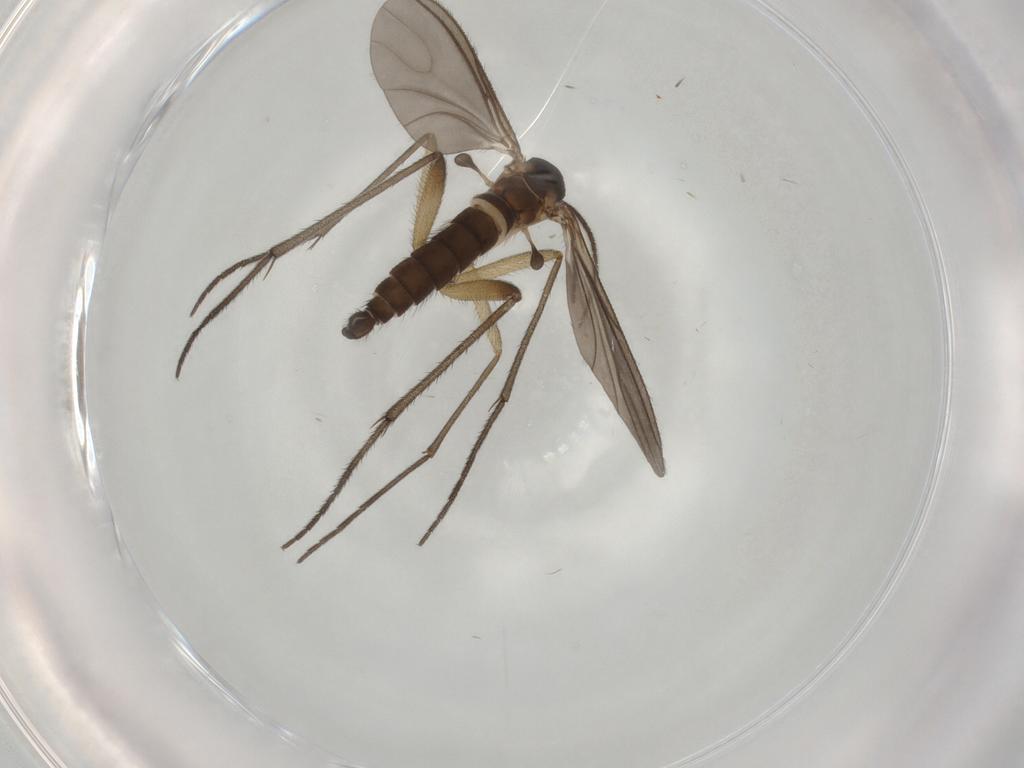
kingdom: Animalia
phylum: Arthropoda
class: Insecta
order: Diptera
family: Sciaridae
